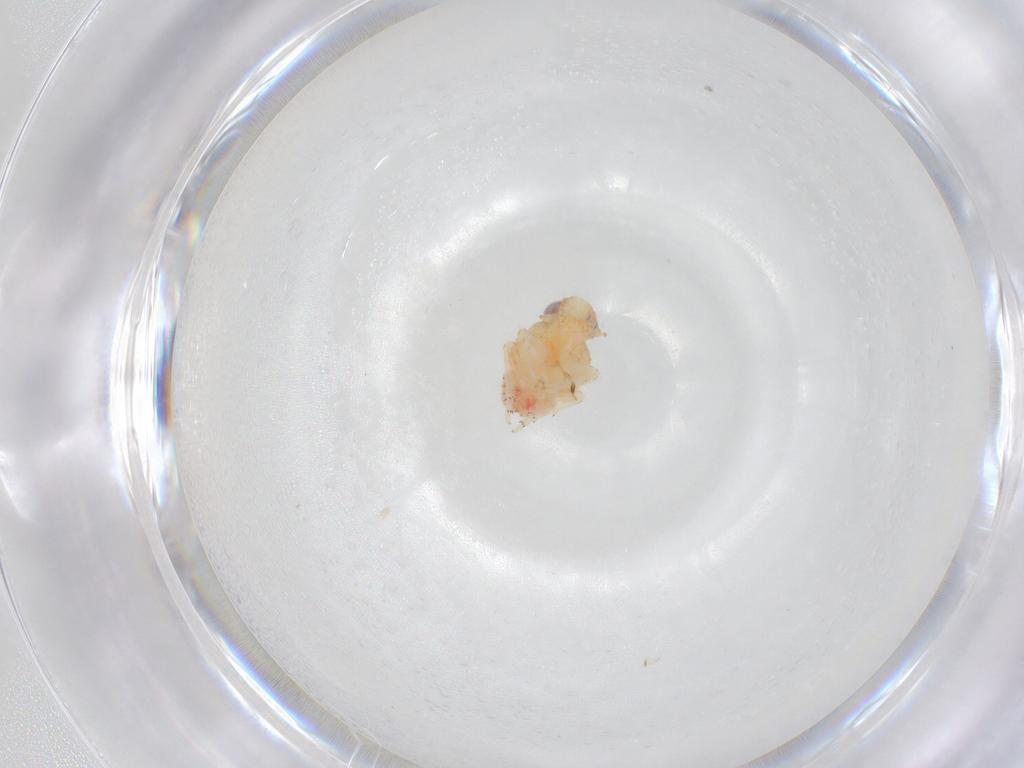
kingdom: Animalia
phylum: Arthropoda
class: Insecta
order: Hemiptera
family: Issidae
